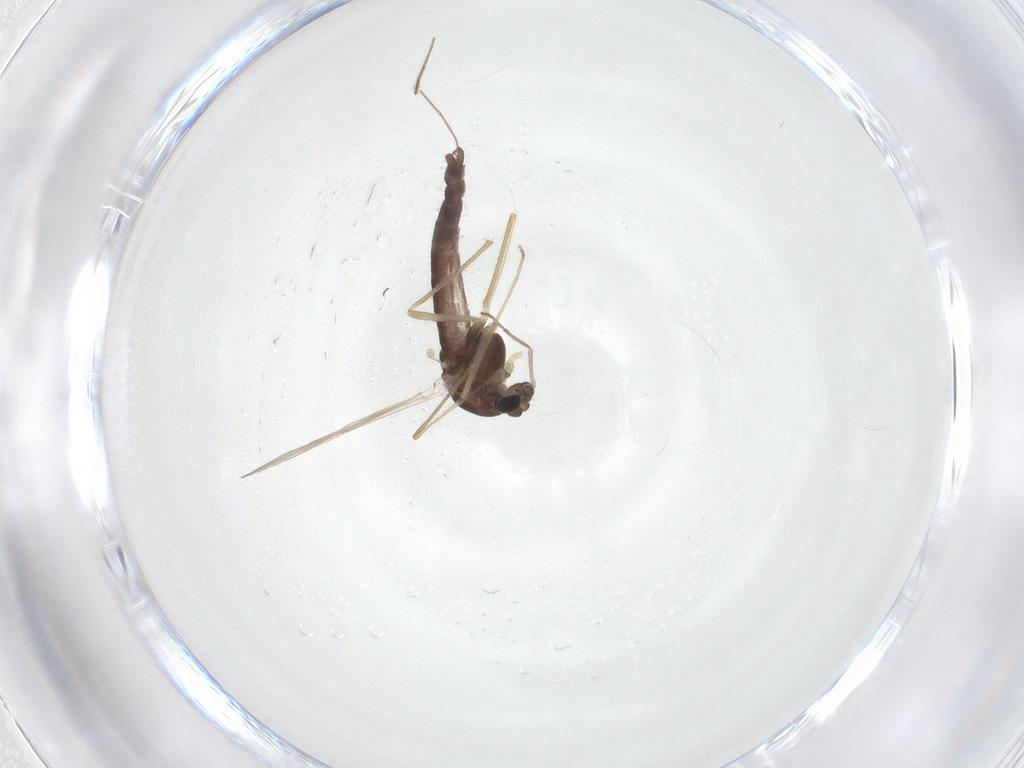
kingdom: Animalia
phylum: Arthropoda
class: Insecta
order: Diptera
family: Chironomidae
